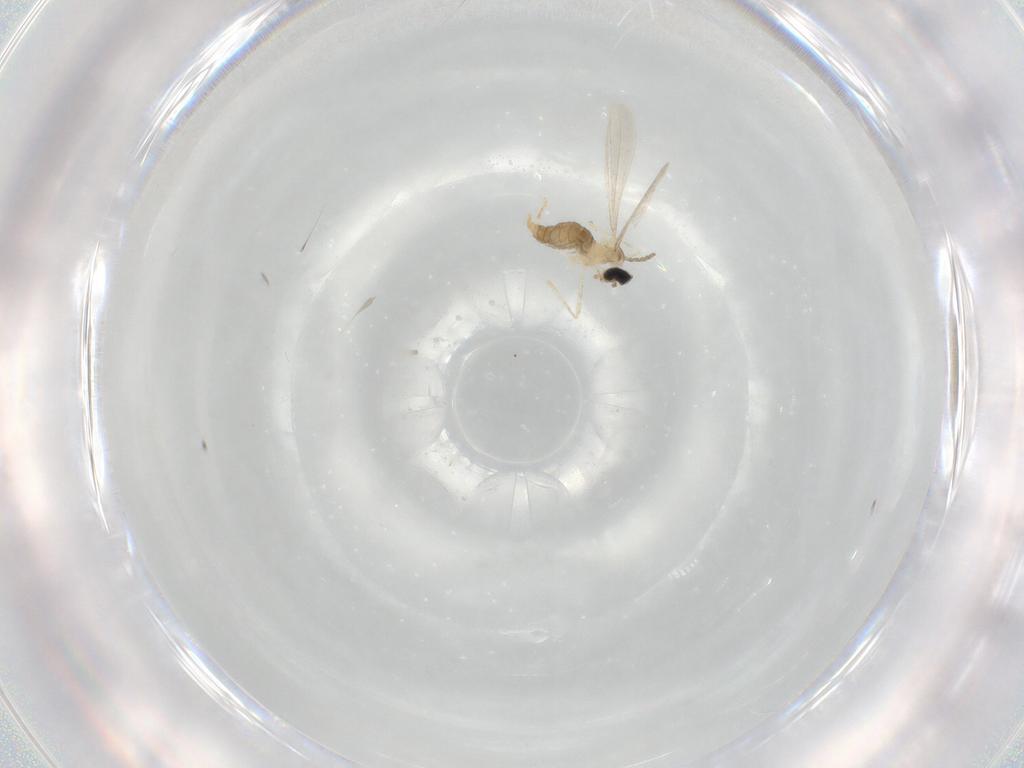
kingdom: Animalia
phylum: Arthropoda
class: Insecta
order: Diptera
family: Cecidomyiidae
